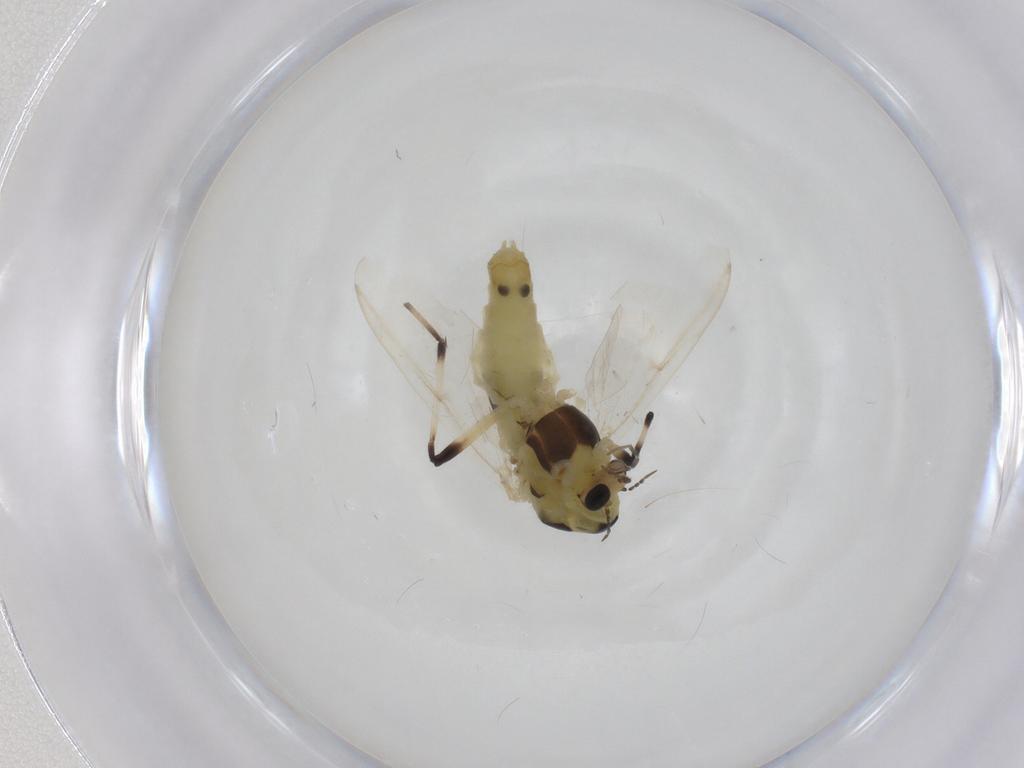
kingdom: Animalia
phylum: Arthropoda
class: Insecta
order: Diptera
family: Chironomidae
